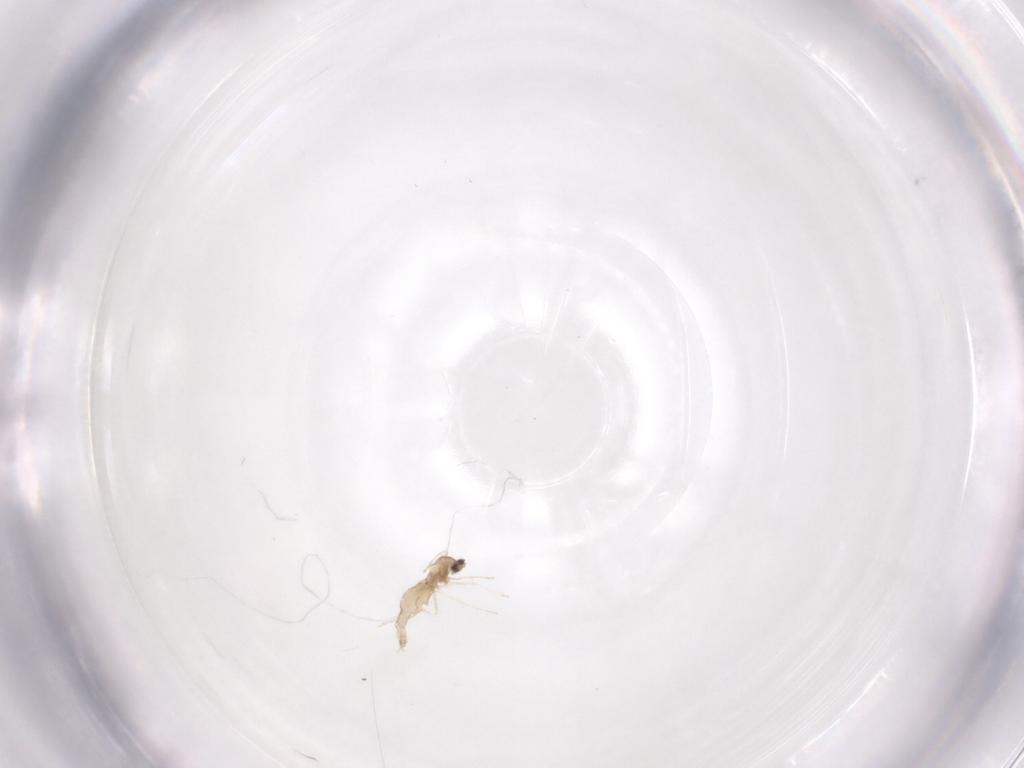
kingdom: Animalia
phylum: Arthropoda
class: Insecta
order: Diptera
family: Cecidomyiidae
